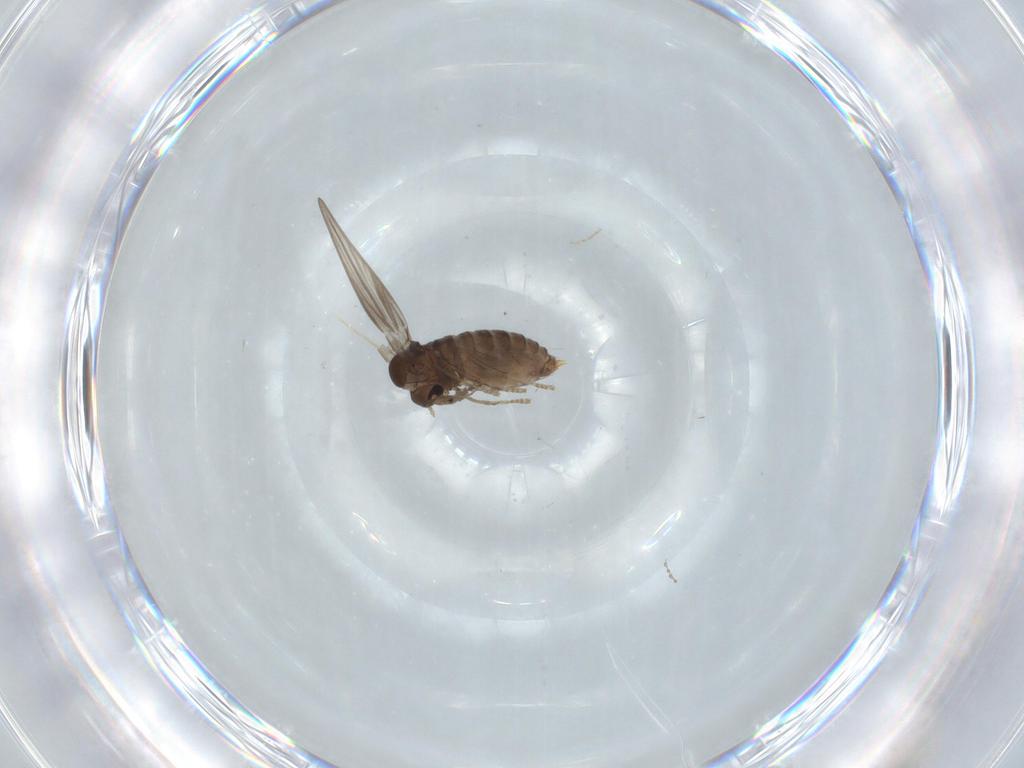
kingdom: Animalia
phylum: Arthropoda
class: Insecta
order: Diptera
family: Psychodidae
